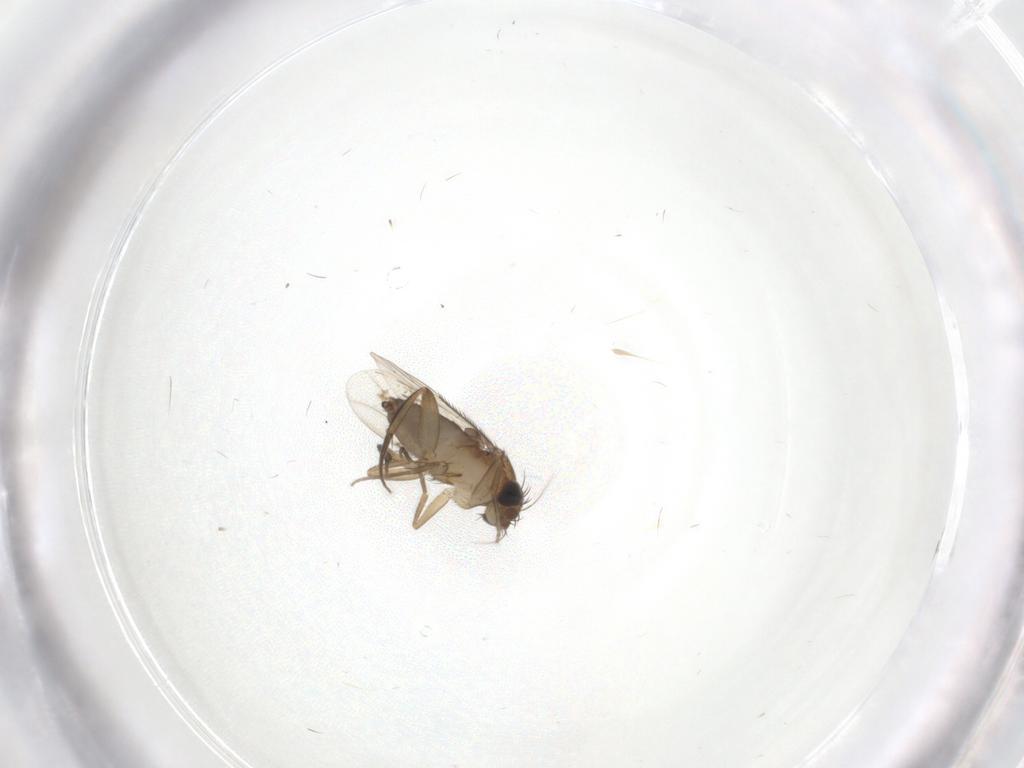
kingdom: Animalia
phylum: Arthropoda
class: Insecta
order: Diptera
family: Phoridae
